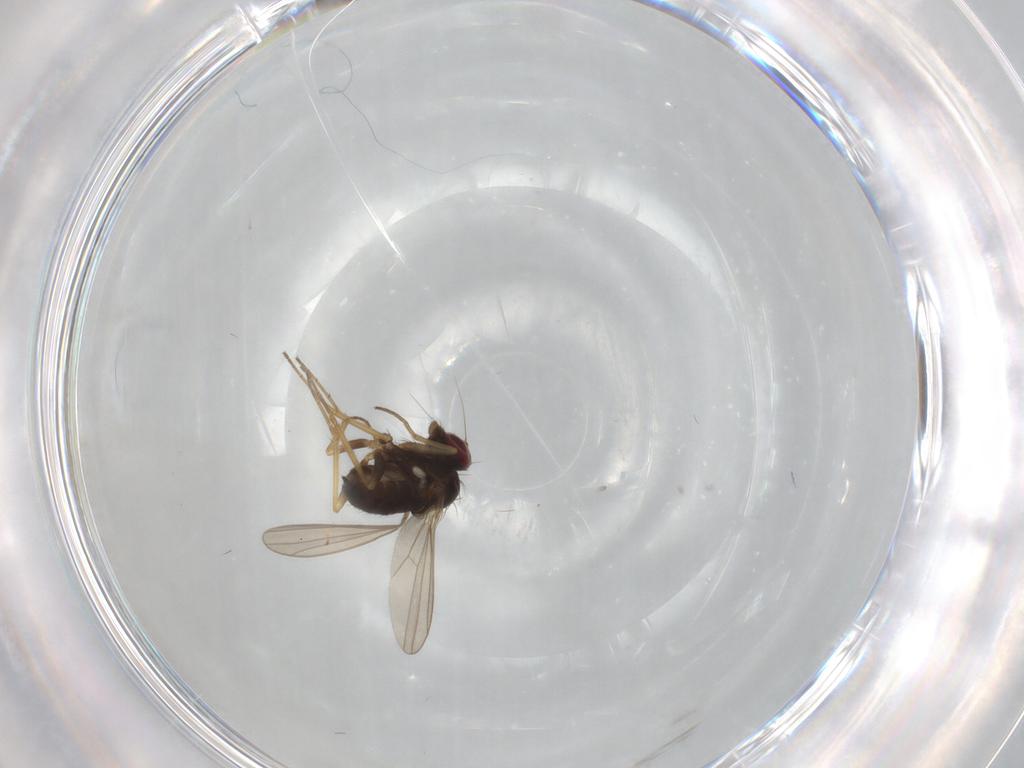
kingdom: Animalia
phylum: Arthropoda
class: Insecta
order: Diptera
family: Dolichopodidae
